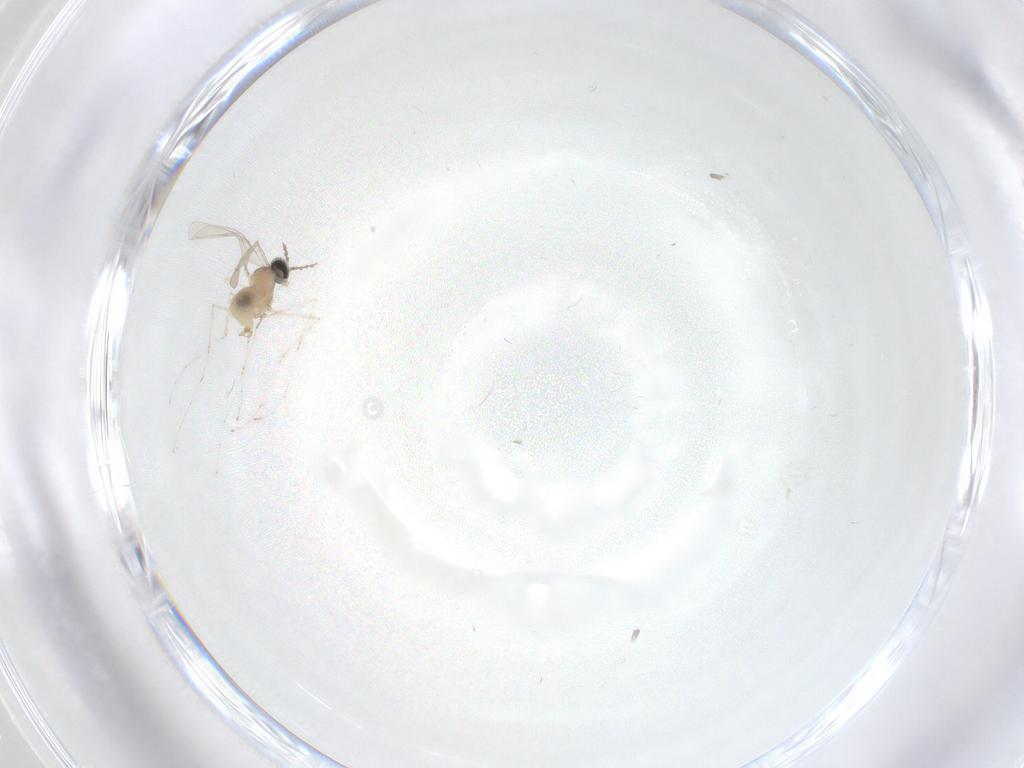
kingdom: Animalia
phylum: Arthropoda
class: Insecta
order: Diptera
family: Cecidomyiidae
